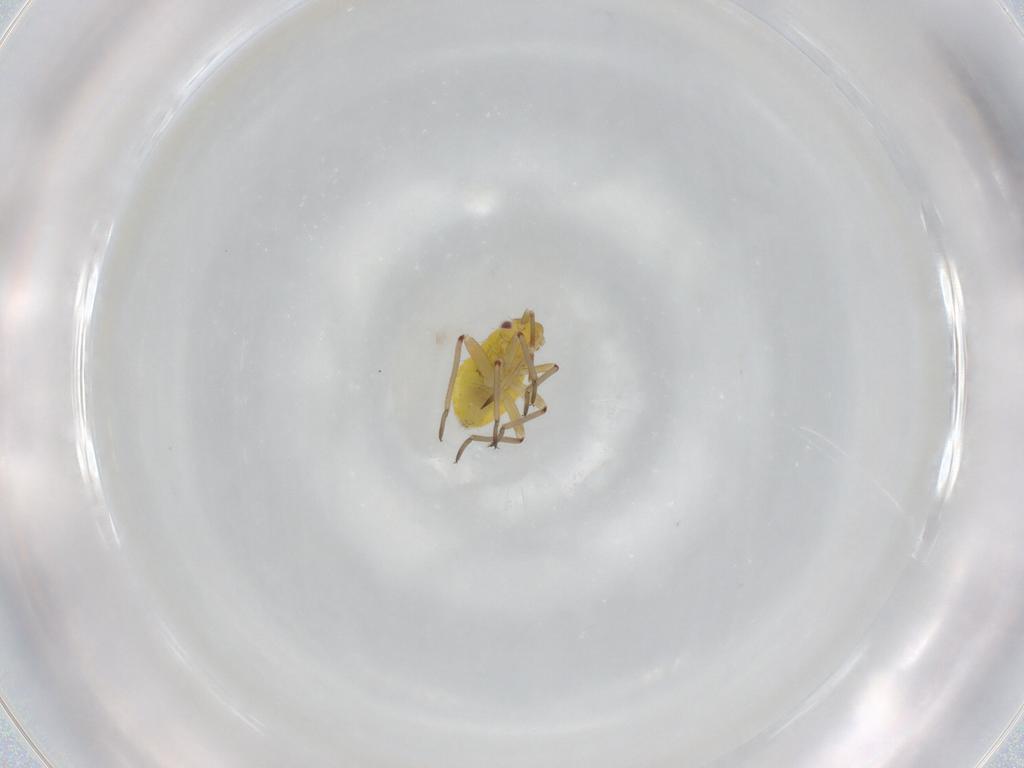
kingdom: Animalia
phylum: Arthropoda
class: Insecta
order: Hemiptera
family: Miridae
